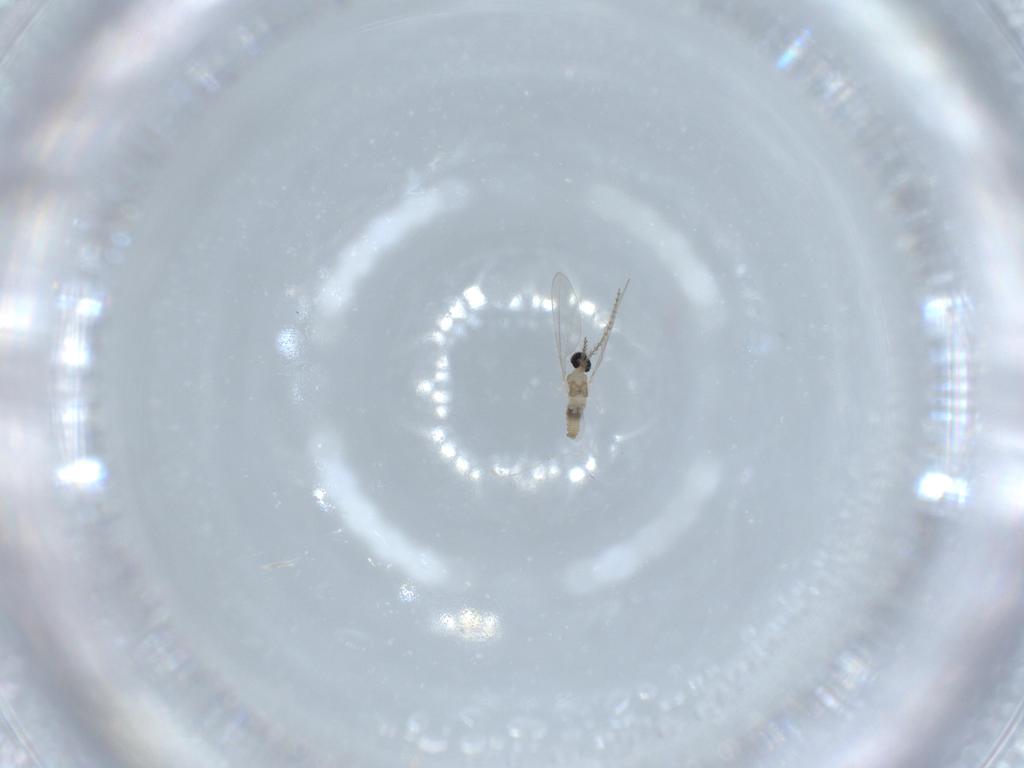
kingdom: Animalia
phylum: Arthropoda
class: Insecta
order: Diptera
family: Cecidomyiidae
